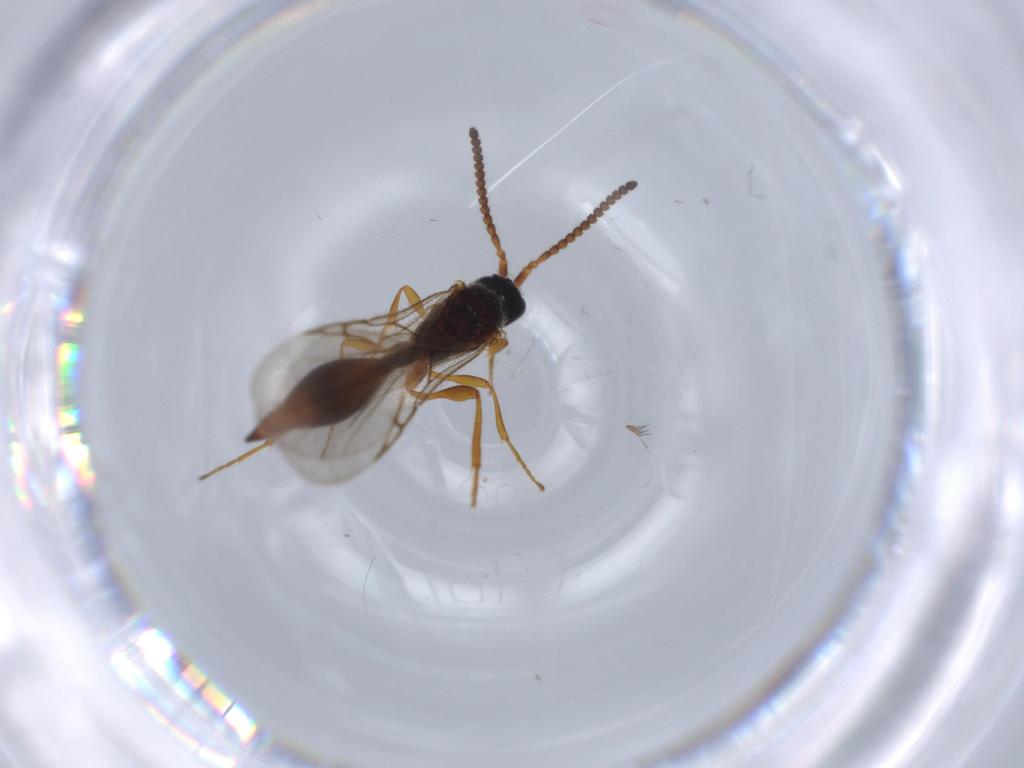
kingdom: Animalia
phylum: Arthropoda
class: Insecta
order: Hymenoptera
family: Diapriidae
